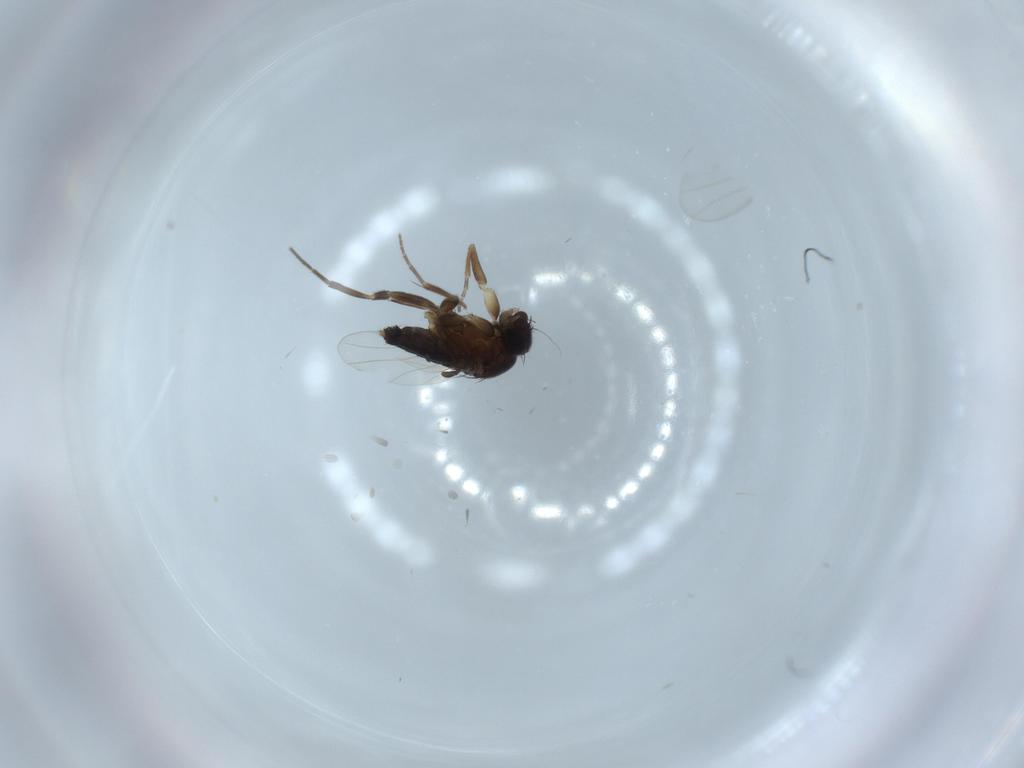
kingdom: Animalia
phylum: Arthropoda
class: Insecta
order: Diptera
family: Phoridae
